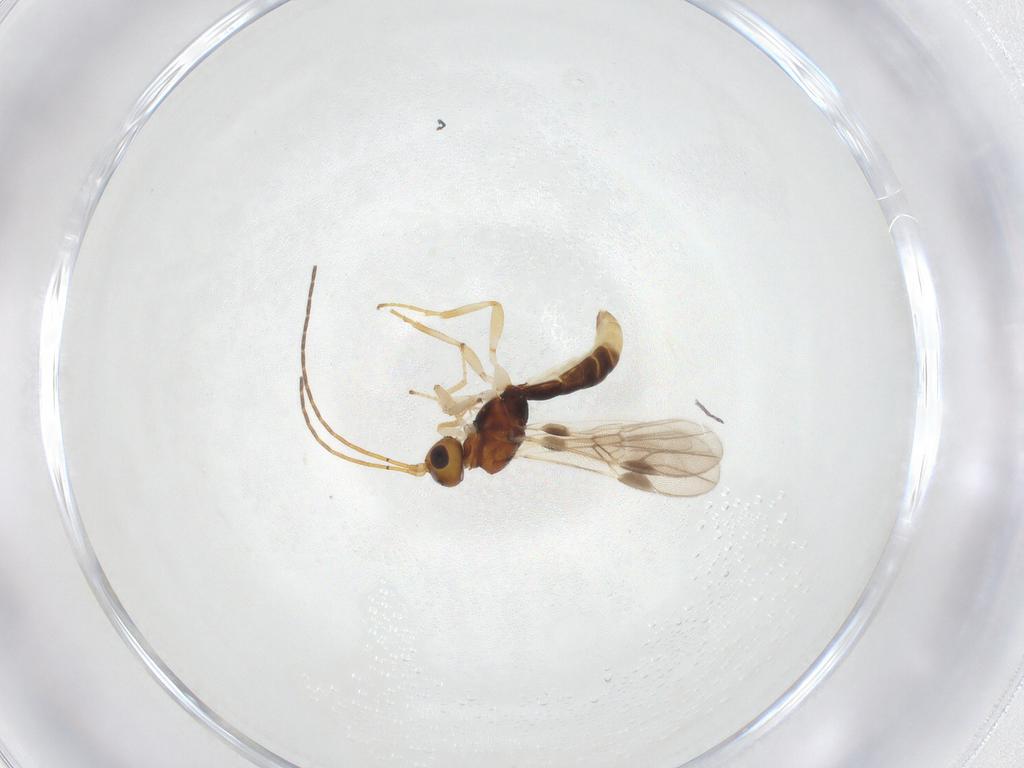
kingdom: Animalia
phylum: Arthropoda
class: Insecta
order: Hymenoptera
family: Braconidae
